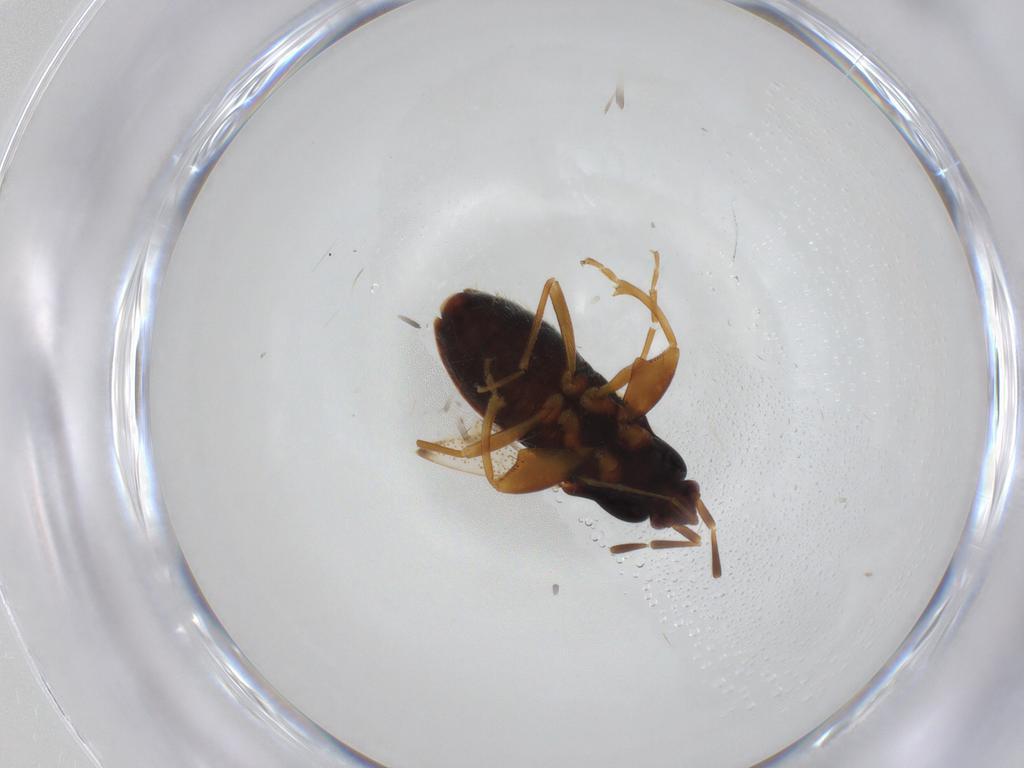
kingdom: Animalia
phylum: Arthropoda
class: Insecta
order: Hemiptera
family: Rhyparochromidae
